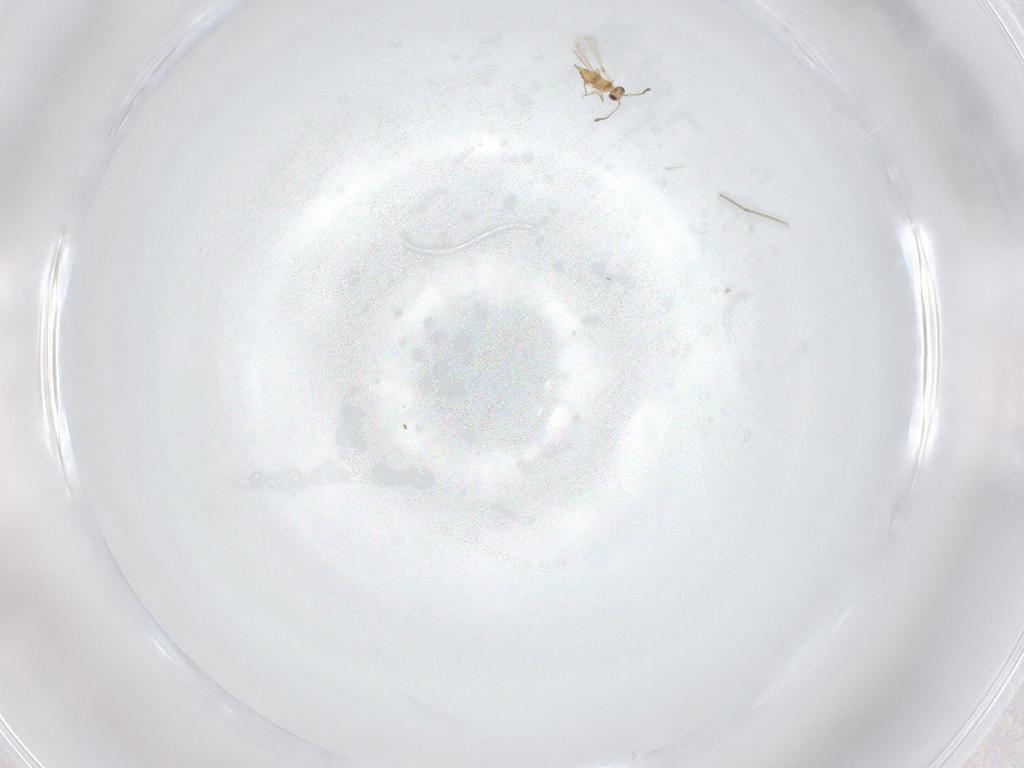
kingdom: Animalia
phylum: Arthropoda
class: Insecta
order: Hymenoptera
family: Mymaridae
